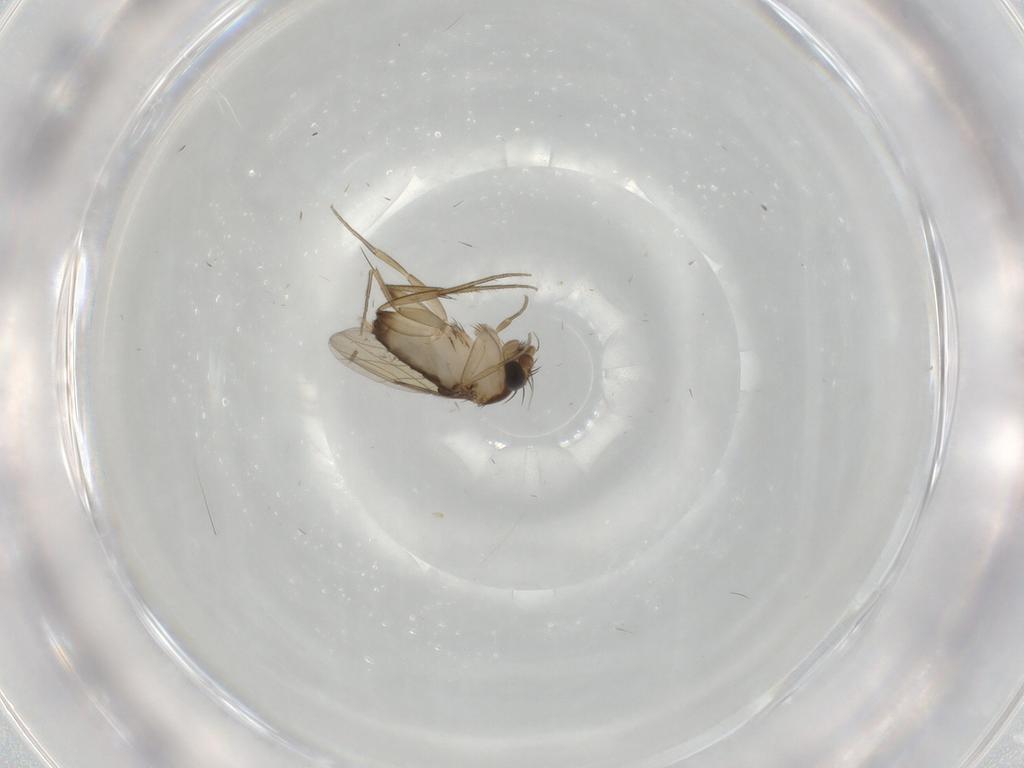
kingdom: Animalia
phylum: Arthropoda
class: Insecta
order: Diptera
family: Phoridae
